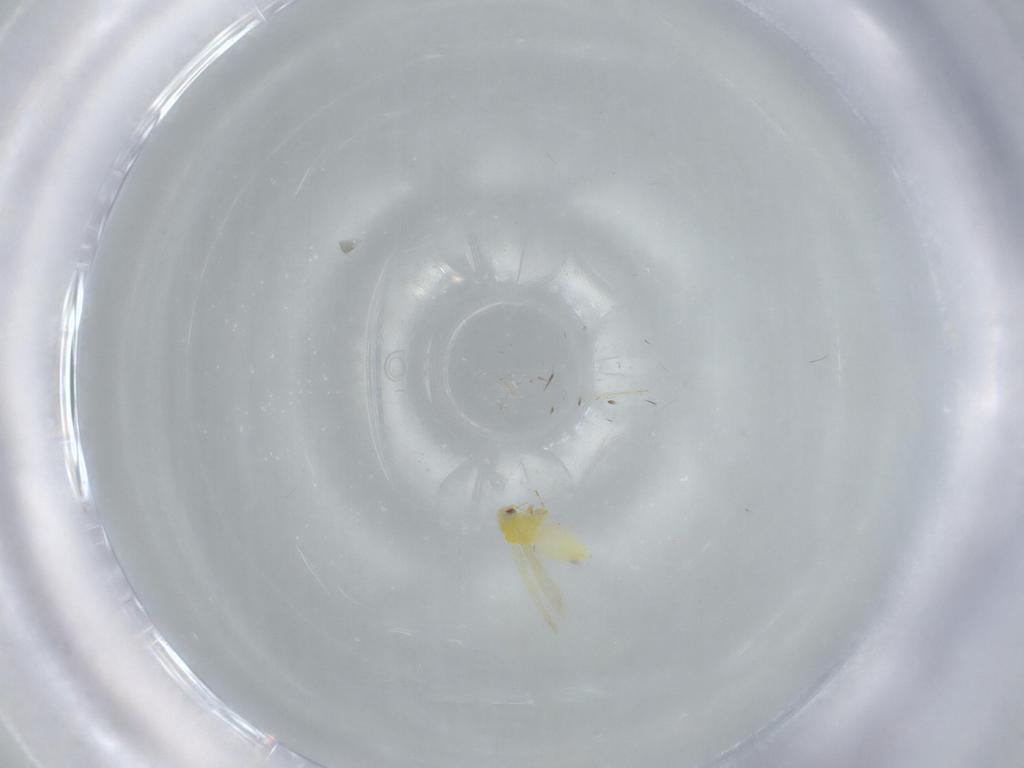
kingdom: Animalia
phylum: Arthropoda
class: Insecta
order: Hemiptera
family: Aleyrodidae
